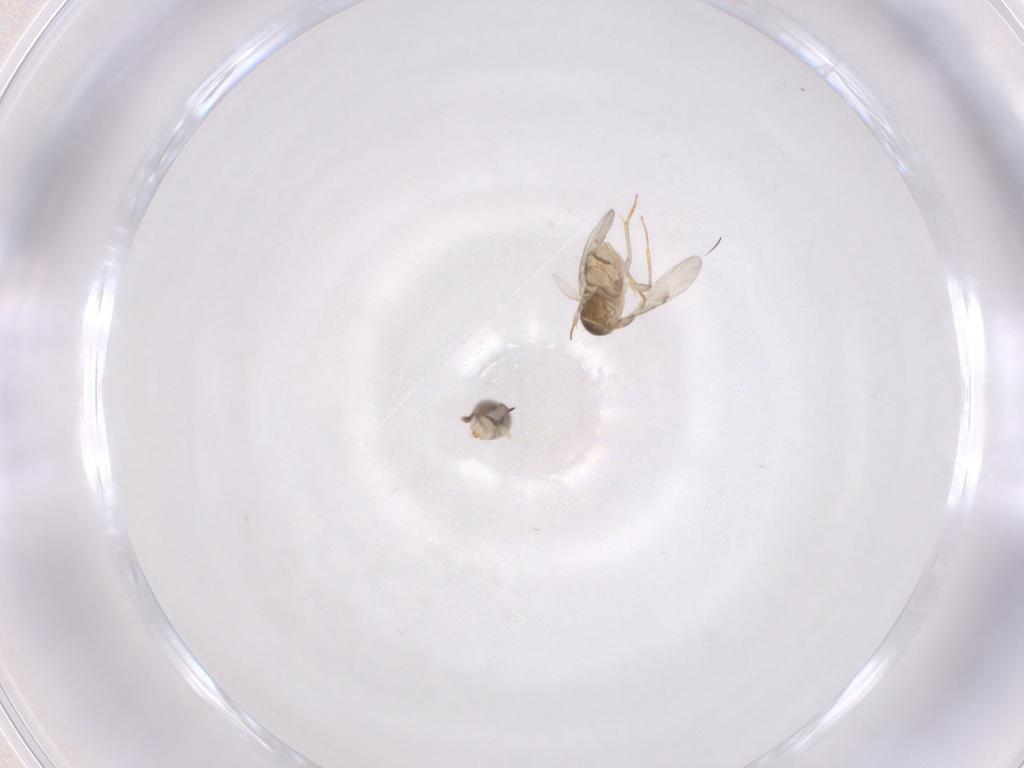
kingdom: Animalia
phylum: Arthropoda
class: Insecta
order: Hymenoptera
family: Encyrtidae
